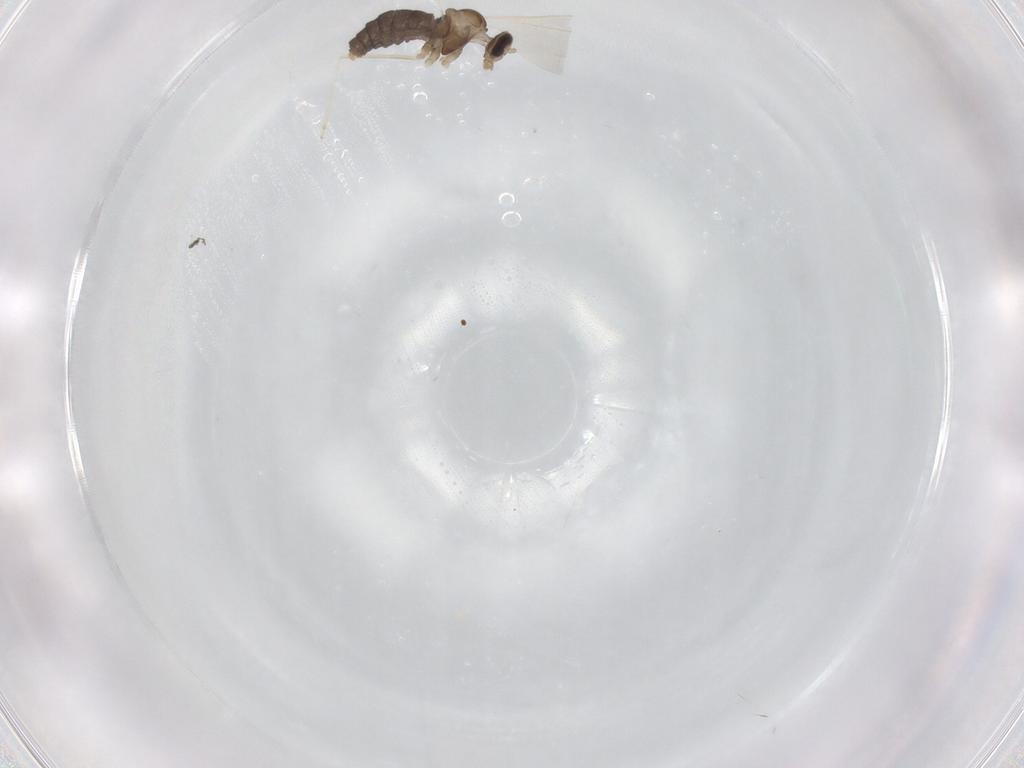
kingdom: Animalia
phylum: Arthropoda
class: Insecta
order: Diptera
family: Cecidomyiidae
